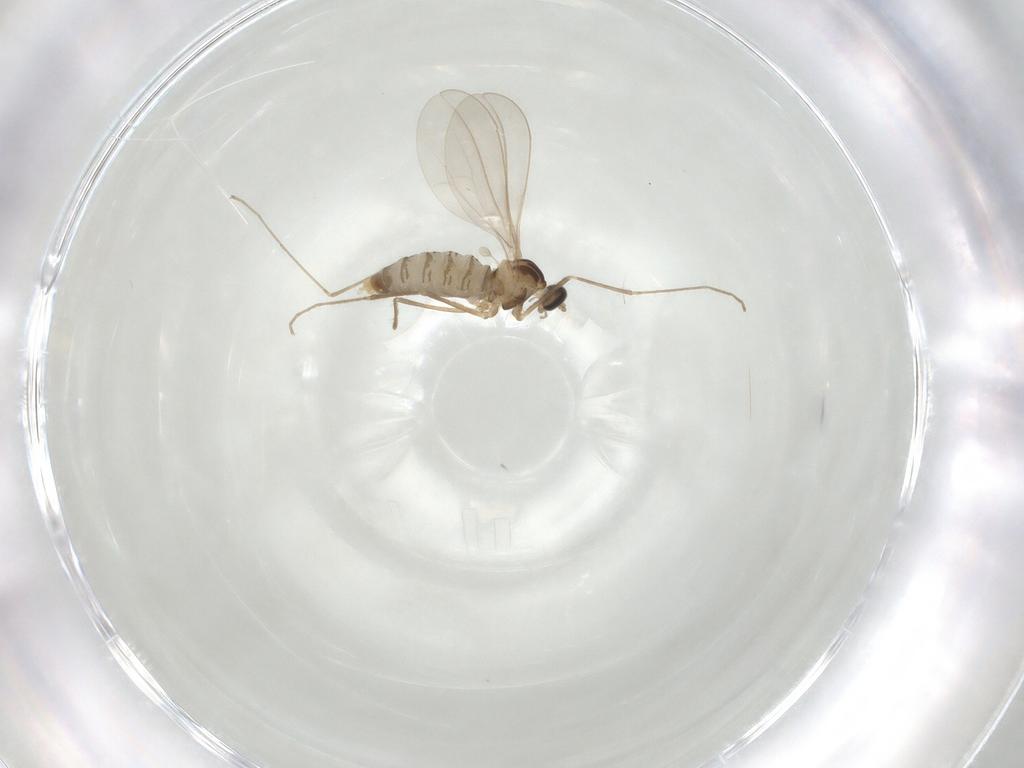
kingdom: Animalia
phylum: Arthropoda
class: Insecta
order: Diptera
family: Cecidomyiidae
